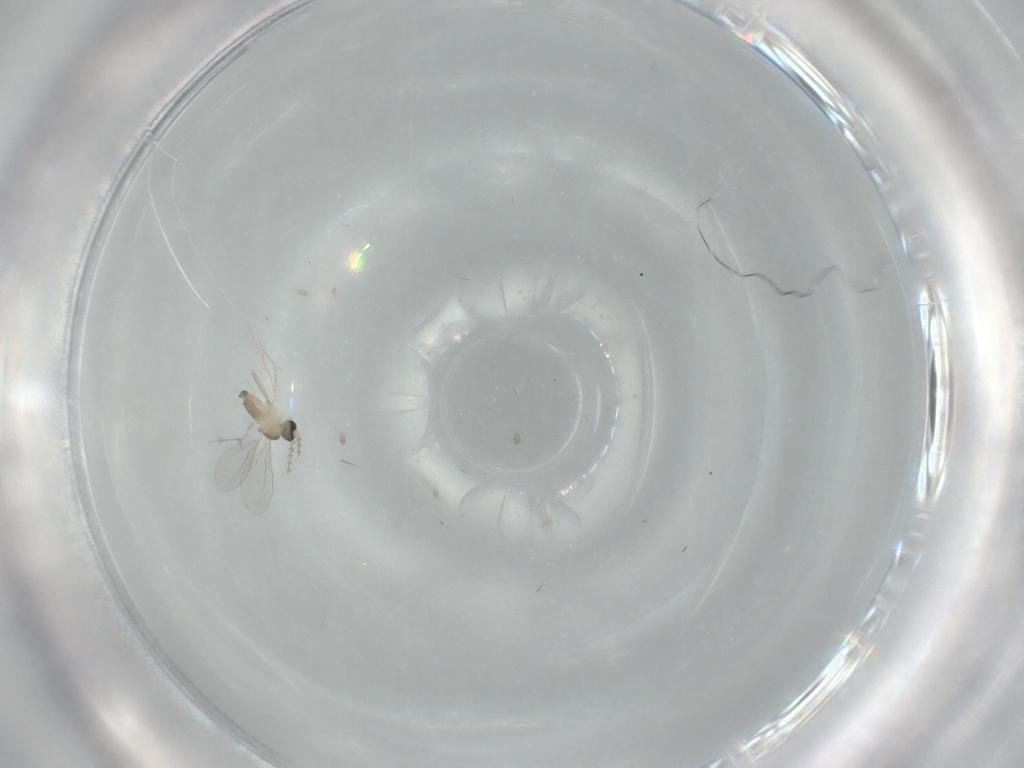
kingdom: Animalia
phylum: Arthropoda
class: Insecta
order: Diptera
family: Cecidomyiidae
